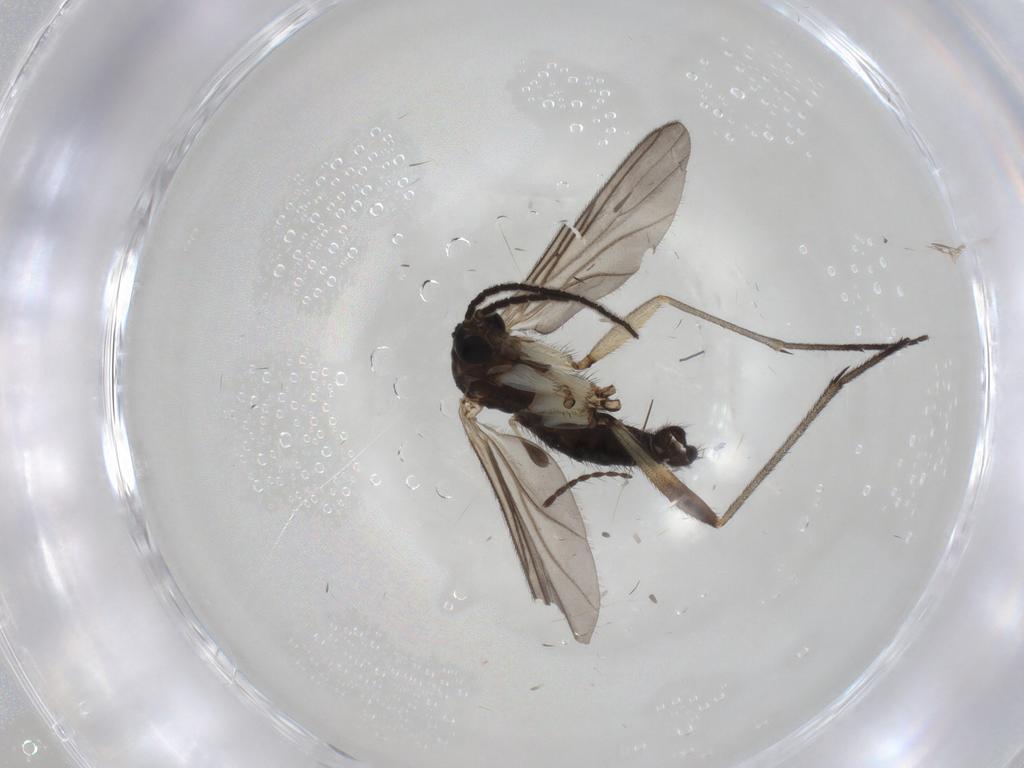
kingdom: Animalia
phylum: Arthropoda
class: Insecta
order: Diptera
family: Sciaridae
